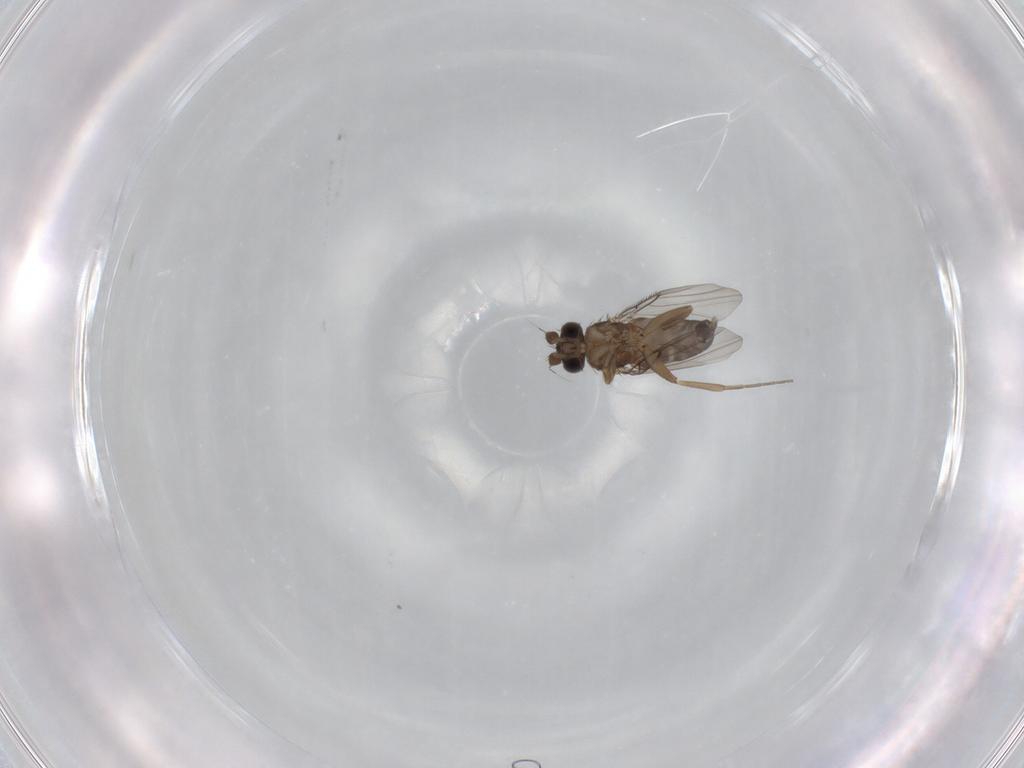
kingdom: Animalia
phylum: Arthropoda
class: Insecta
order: Diptera
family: Phoridae
